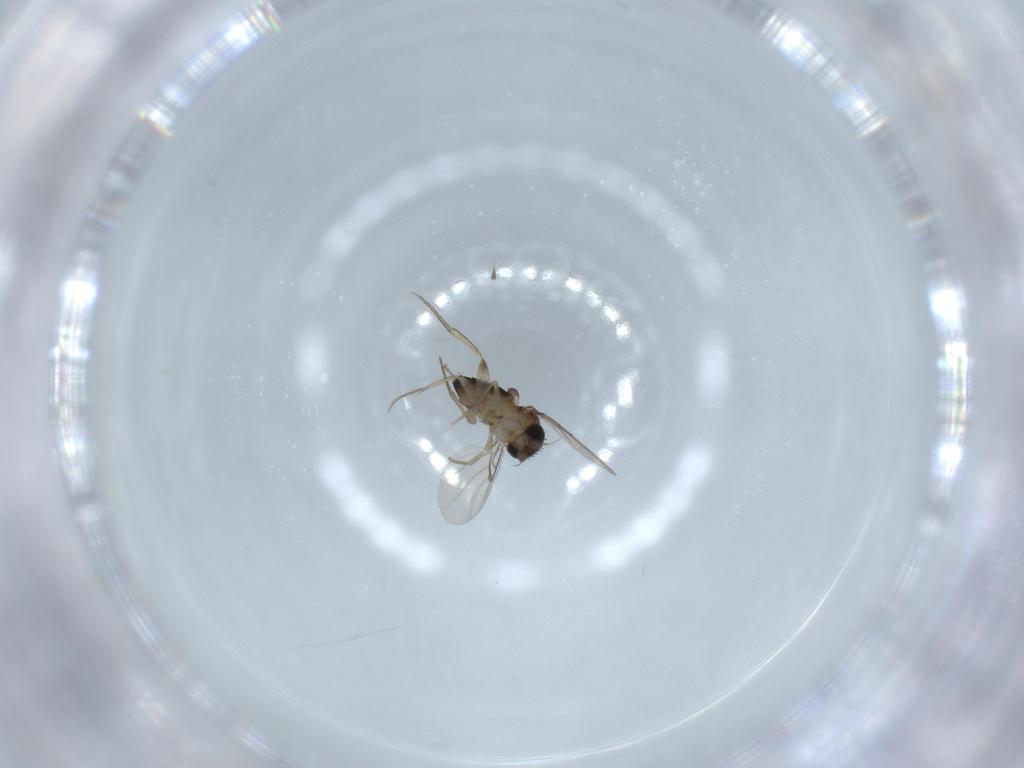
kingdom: Animalia
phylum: Arthropoda
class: Insecta
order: Diptera
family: Phoridae
